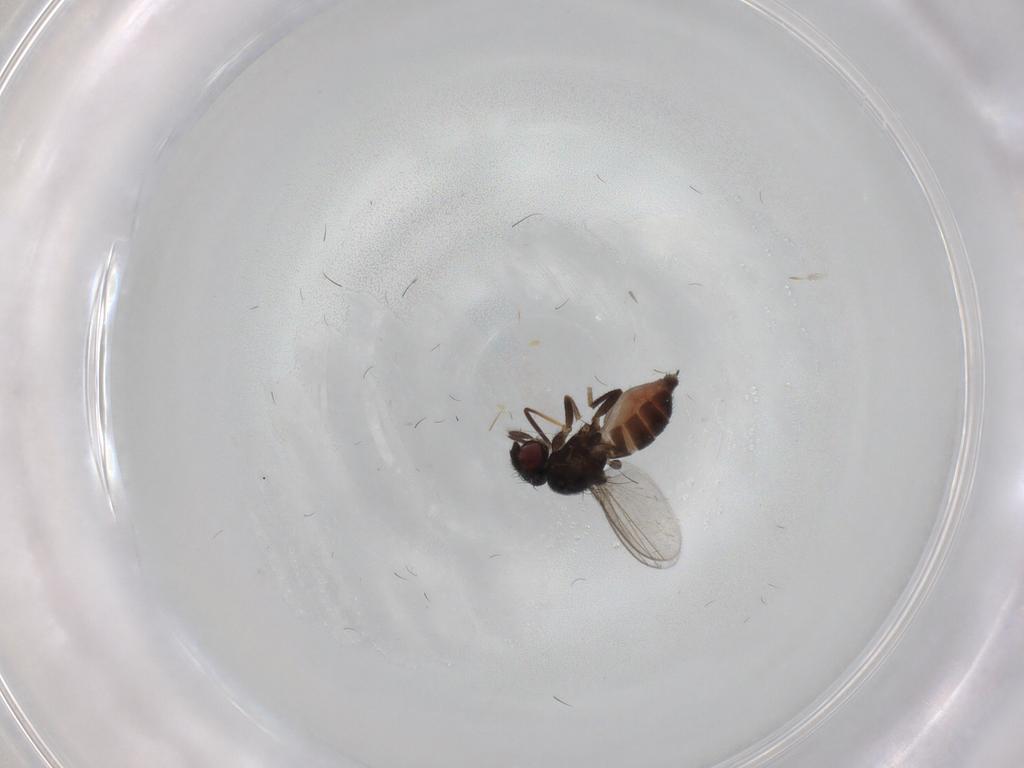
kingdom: Animalia
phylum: Arthropoda
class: Insecta
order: Diptera
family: Milichiidae
